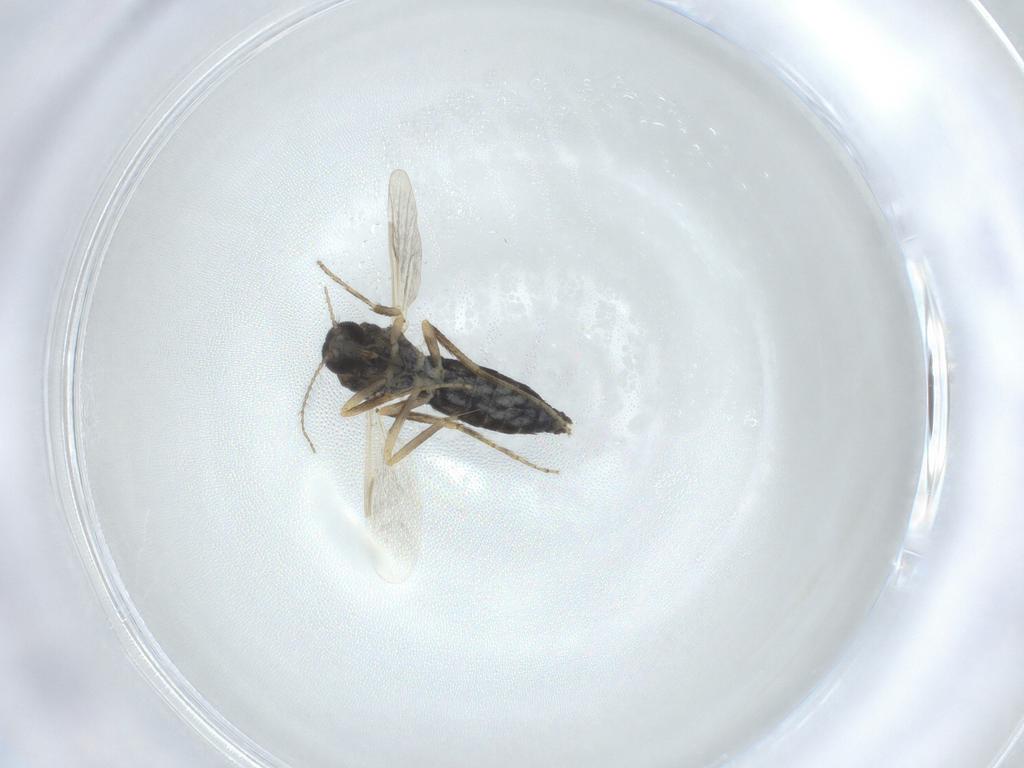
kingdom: Animalia
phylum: Arthropoda
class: Insecta
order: Diptera
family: Ceratopogonidae
